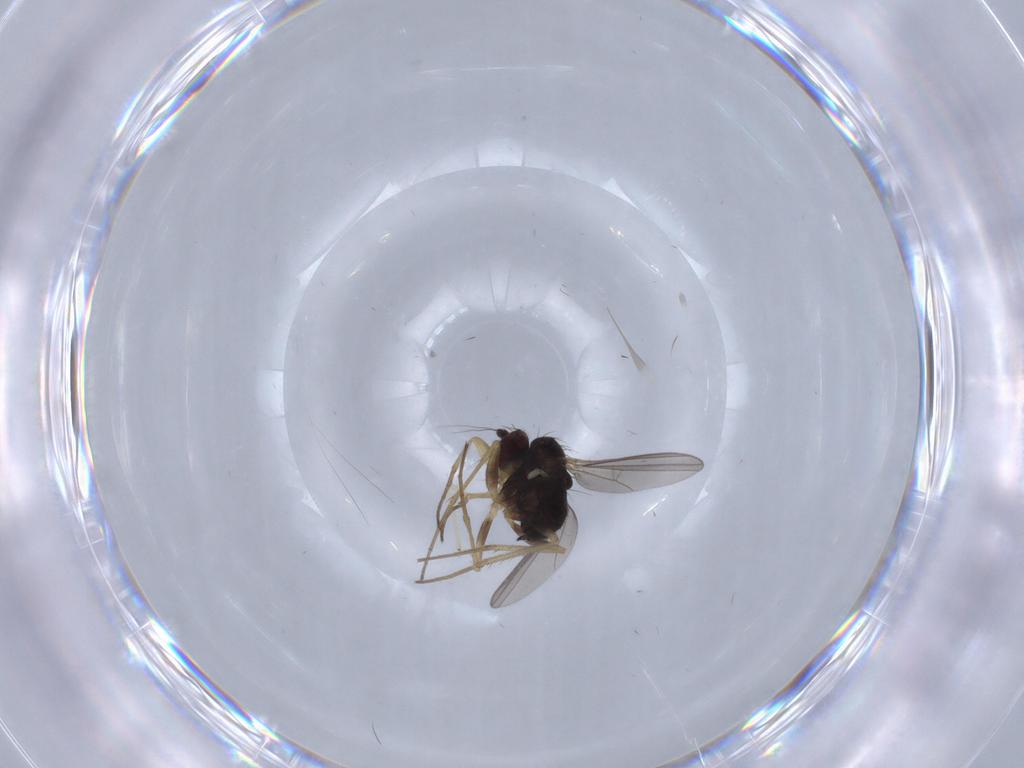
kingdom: Animalia
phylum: Arthropoda
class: Insecta
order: Diptera
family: Dolichopodidae
